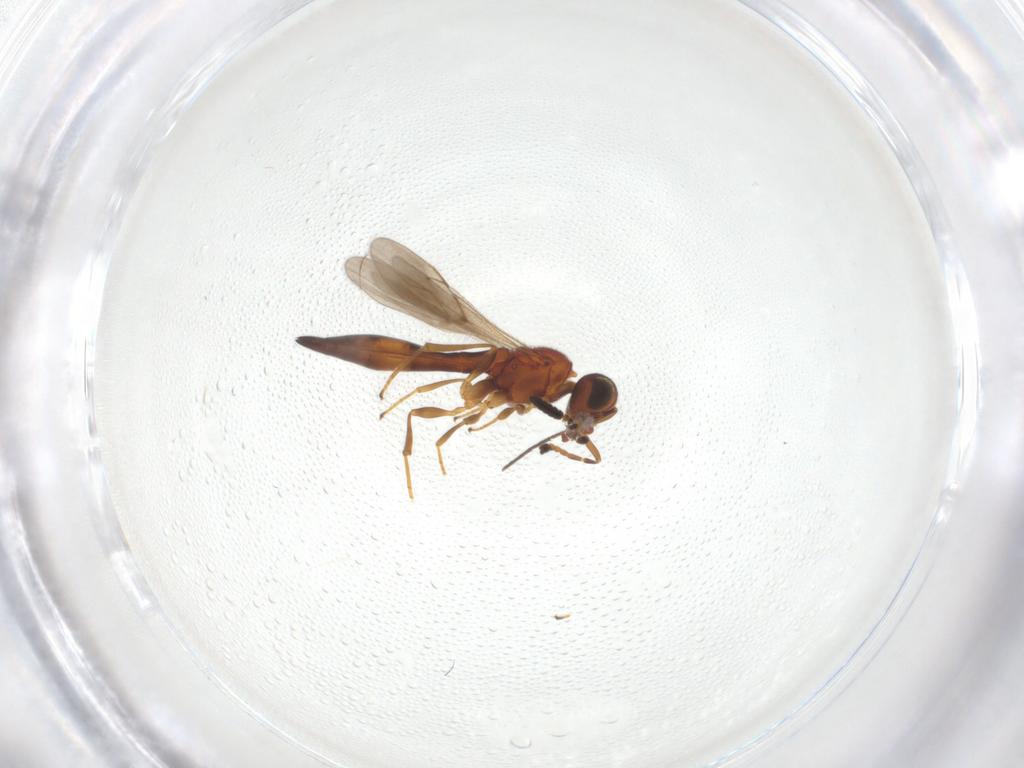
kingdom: Animalia
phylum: Arthropoda
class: Insecta
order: Hymenoptera
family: Scelionidae
